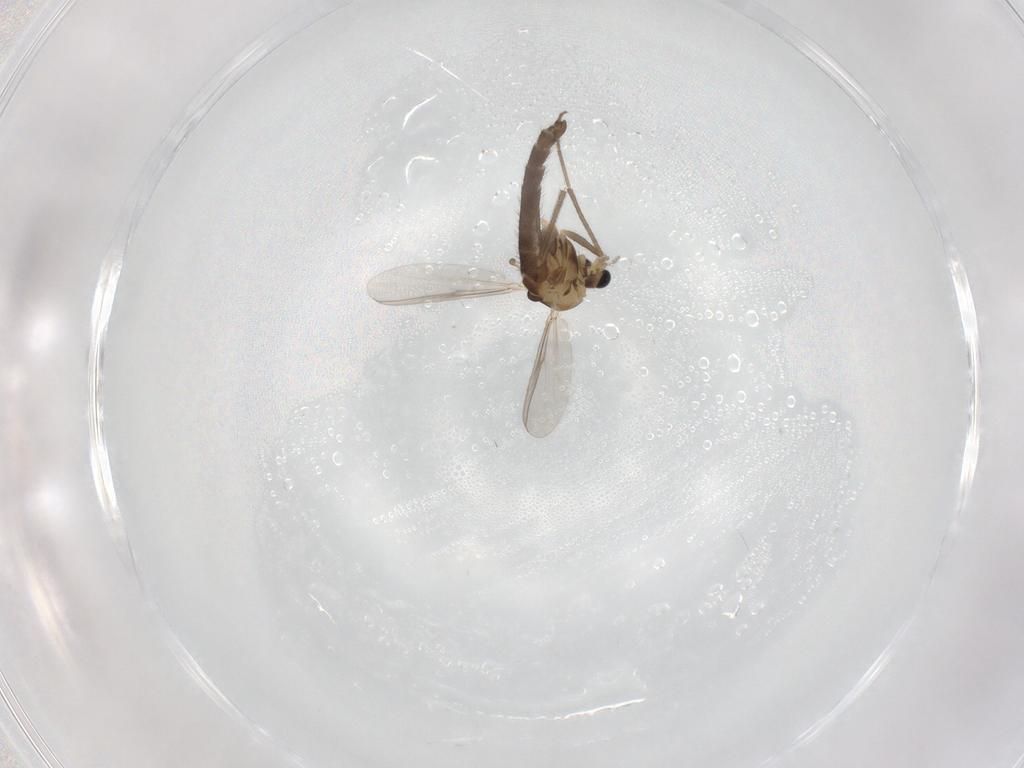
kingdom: Animalia
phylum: Arthropoda
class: Insecta
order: Diptera
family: Chironomidae
